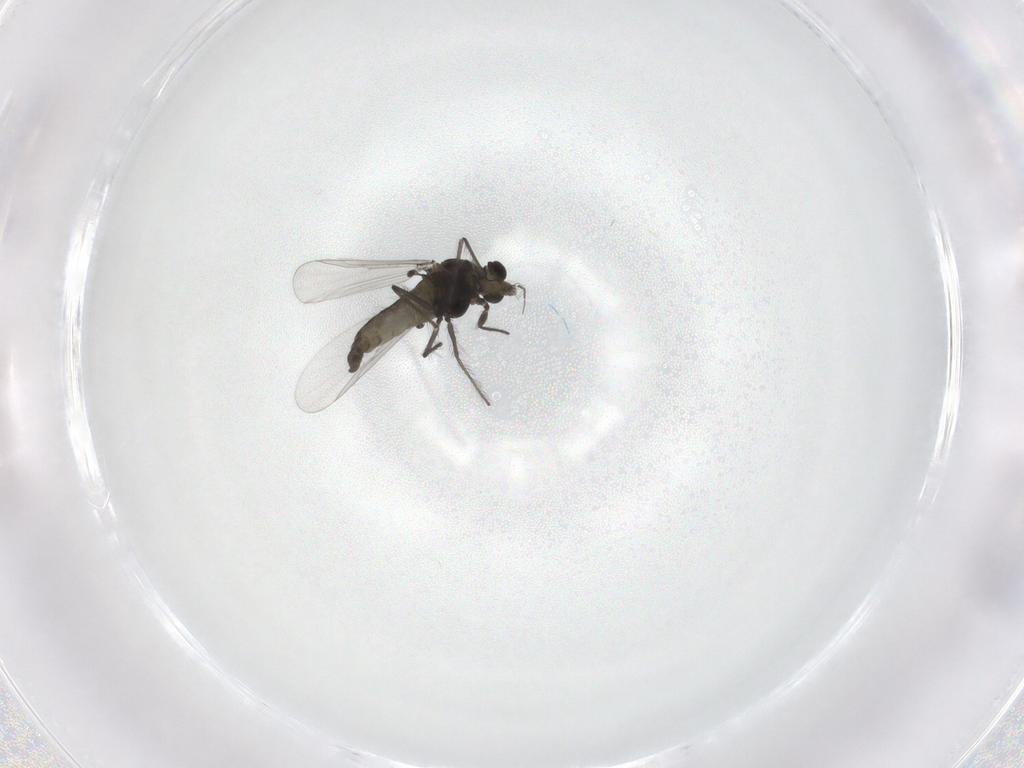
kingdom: Animalia
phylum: Arthropoda
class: Insecta
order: Diptera
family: Chironomidae
